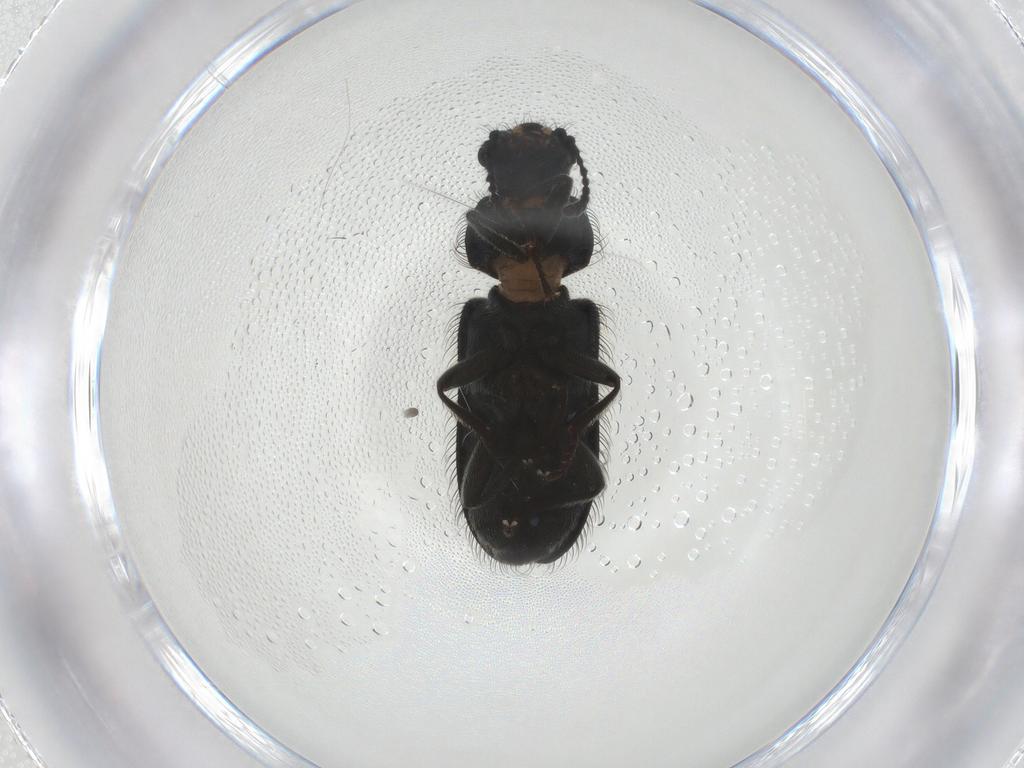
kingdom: Animalia
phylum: Arthropoda
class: Insecta
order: Coleoptera
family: Melyridae
